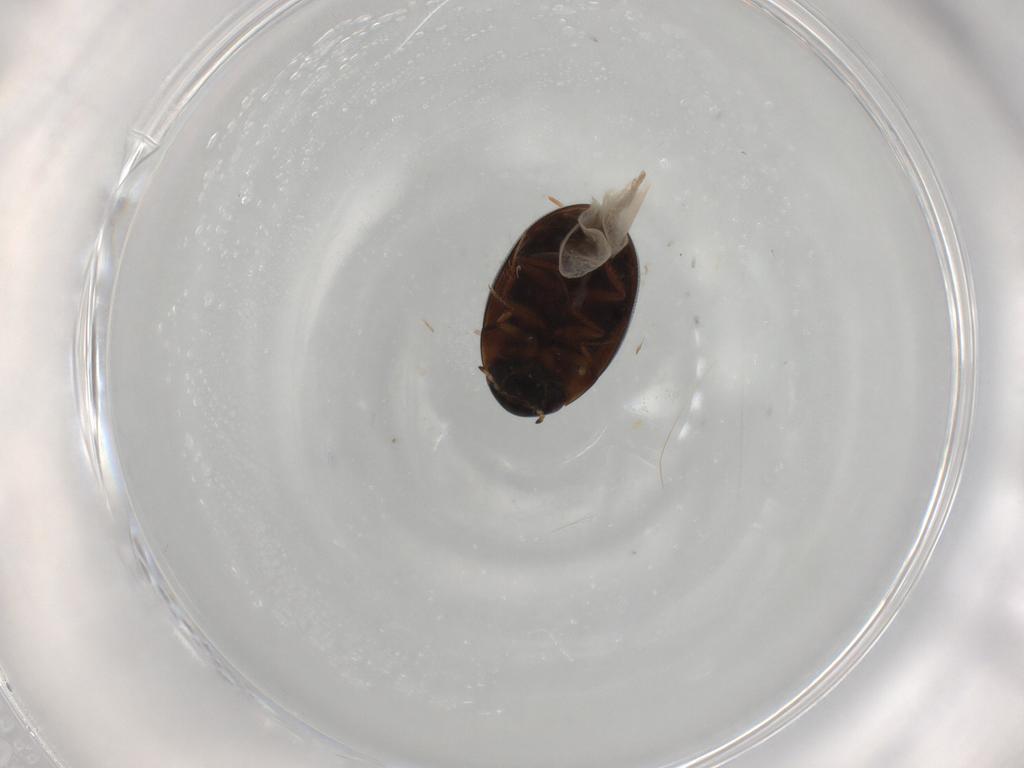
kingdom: Animalia
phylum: Arthropoda
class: Insecta
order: Coleoptera
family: Hydrophilidae
